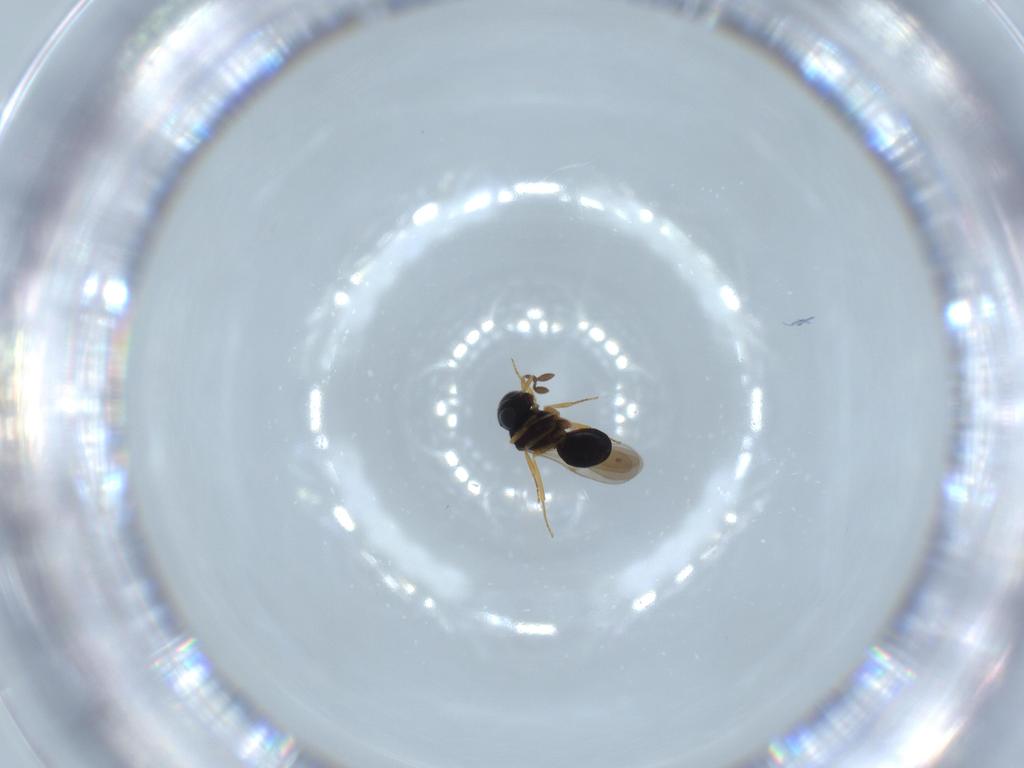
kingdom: Animalia
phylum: Arthropoda
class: Insecta
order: Hymenoptera
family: Scelionidae
